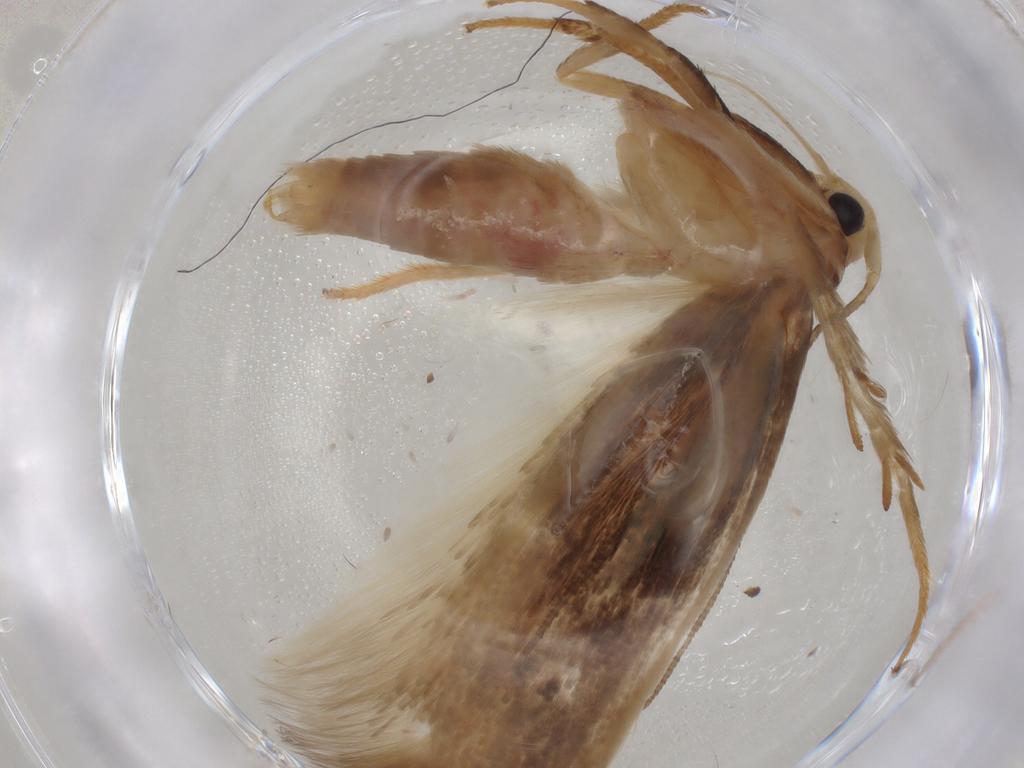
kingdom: Animalia
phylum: Arthropoda
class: Insecta
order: Lepidoptera
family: Geometridae
